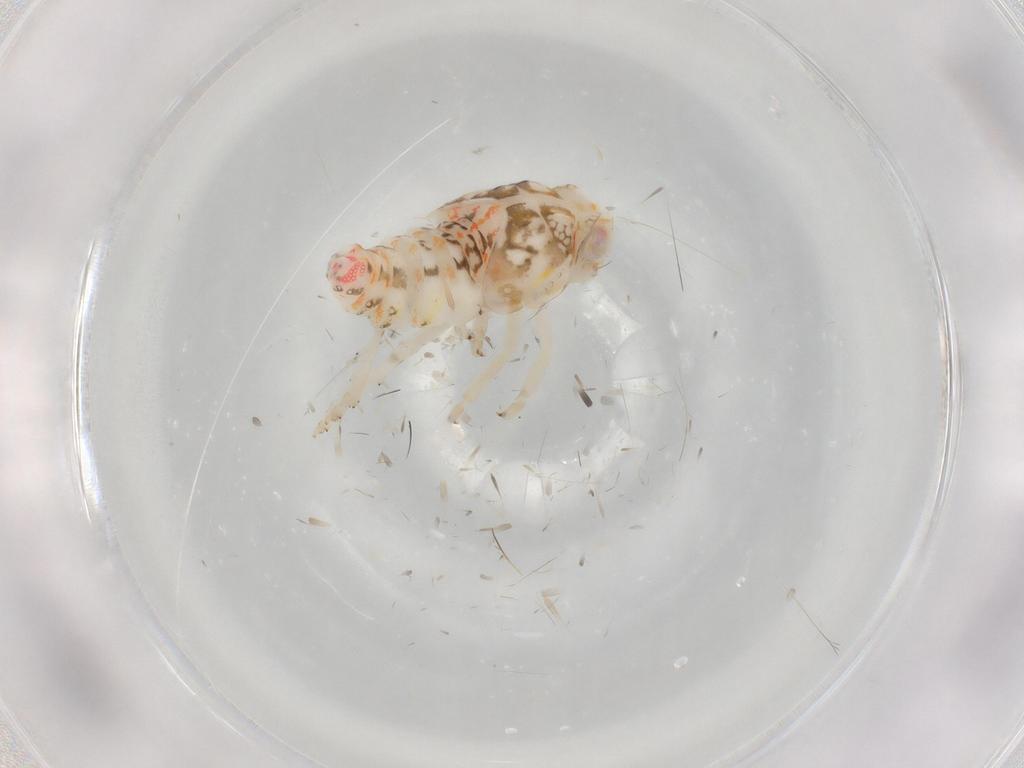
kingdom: Animalia
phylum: Arthropoda
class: Insecta
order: Hemiptera
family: Nogodinidae
